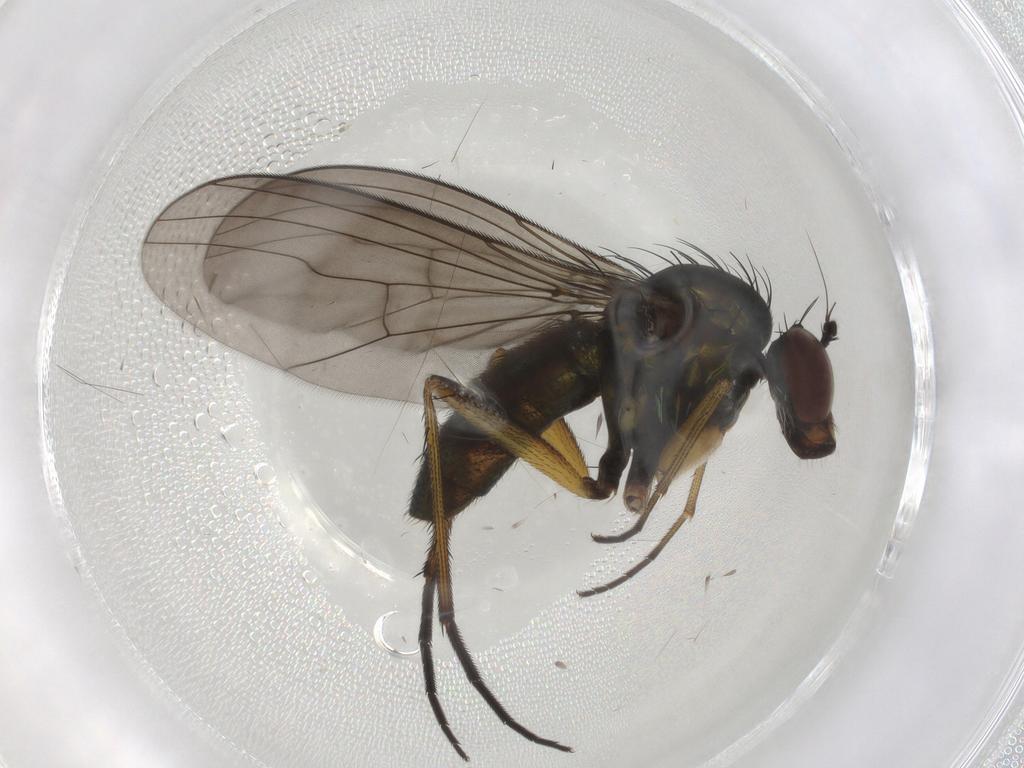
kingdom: Animalia
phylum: Arthropoda
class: Insecta
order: Diptera
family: Dolichopodidae
